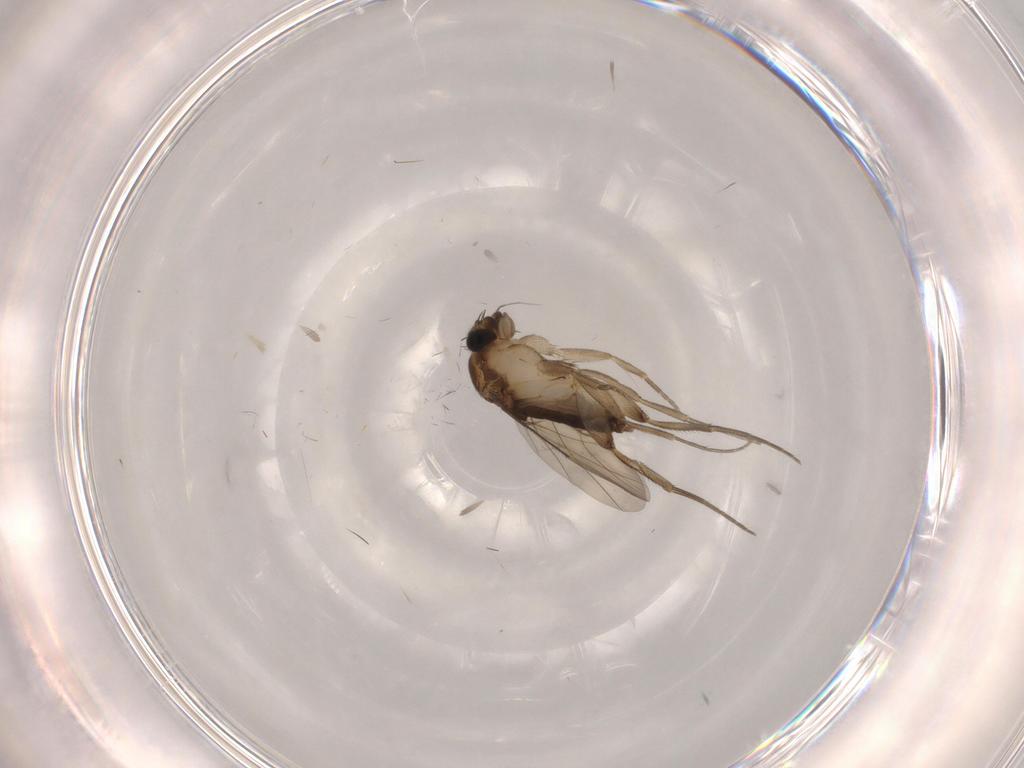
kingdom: Animalia
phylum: Arthropoda
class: Insecta
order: Diptera
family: Phoridae
